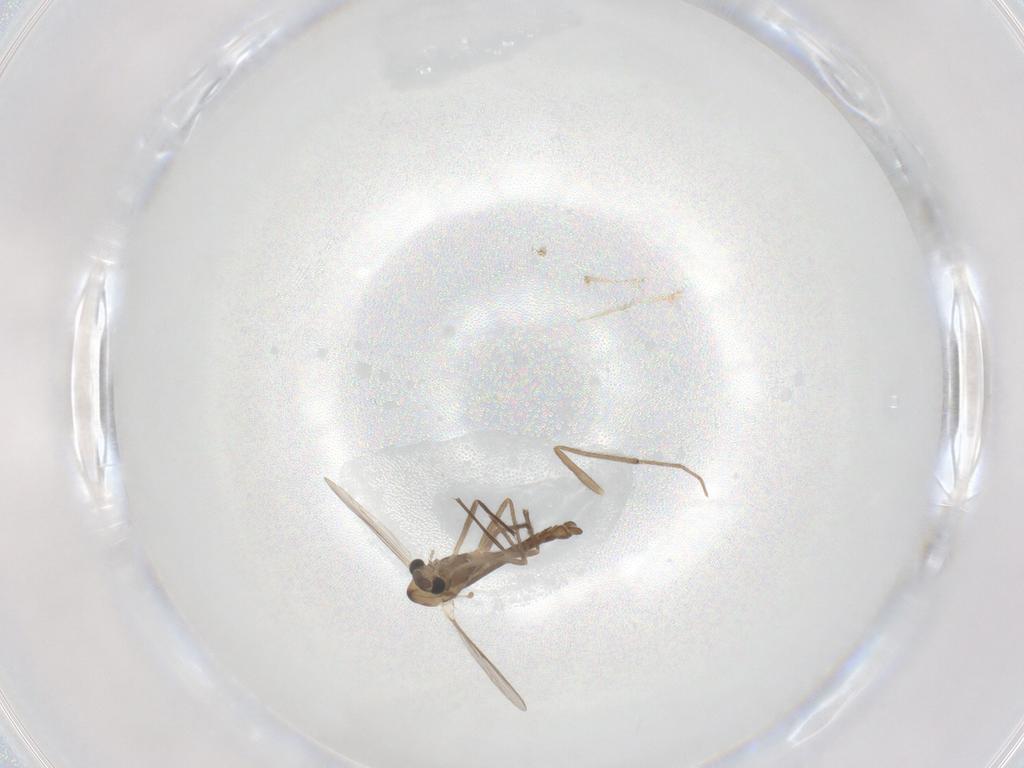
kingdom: Animalia
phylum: Arthropoda
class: Insecta
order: Diptera
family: Chironomidae
